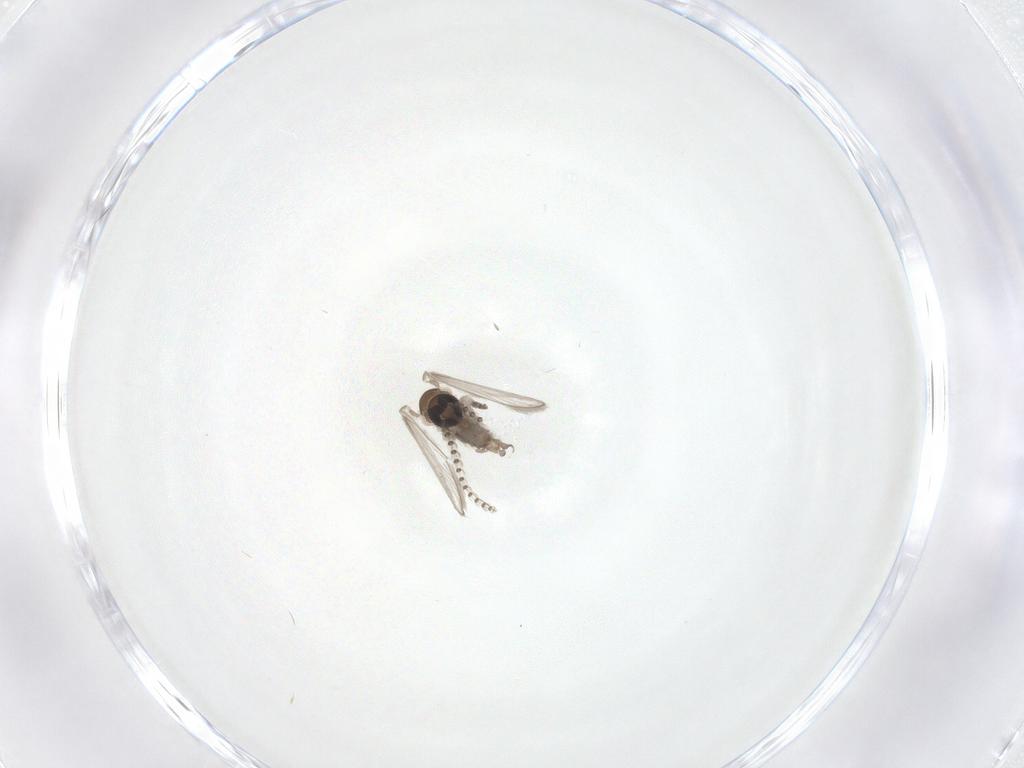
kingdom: Animalia
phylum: Arthropoda
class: Insecta
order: Diptera
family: Psychodidae
